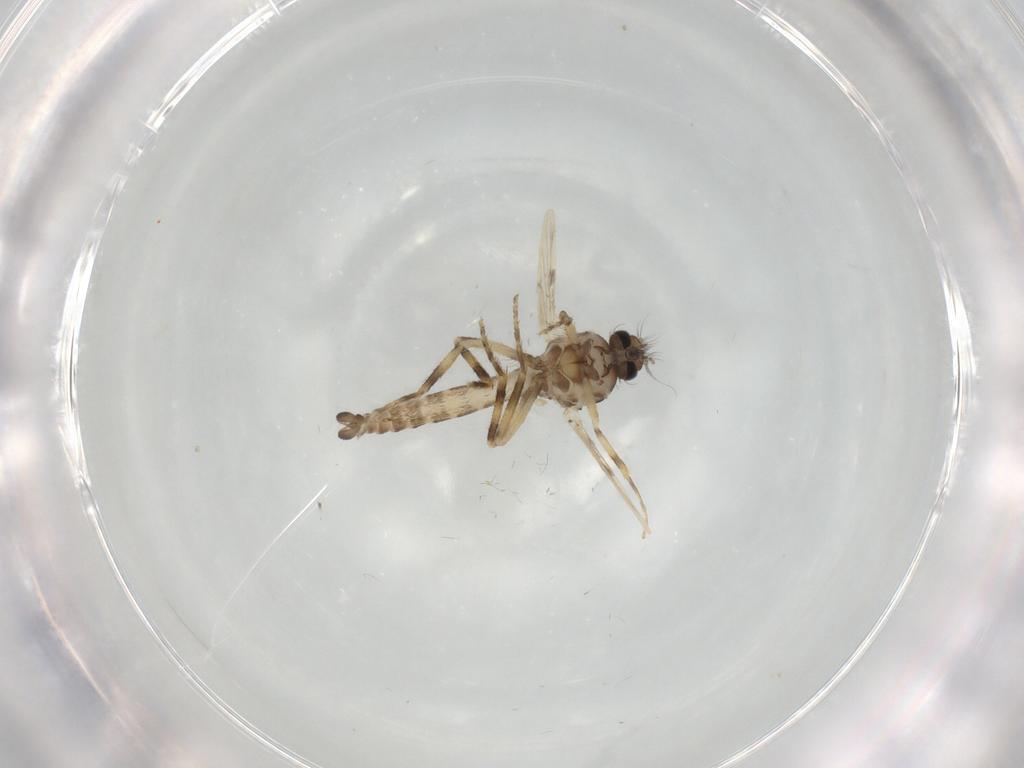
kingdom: Animalia
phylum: Arthropoda
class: Insecta
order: Diptera
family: Ceratopogonidae
